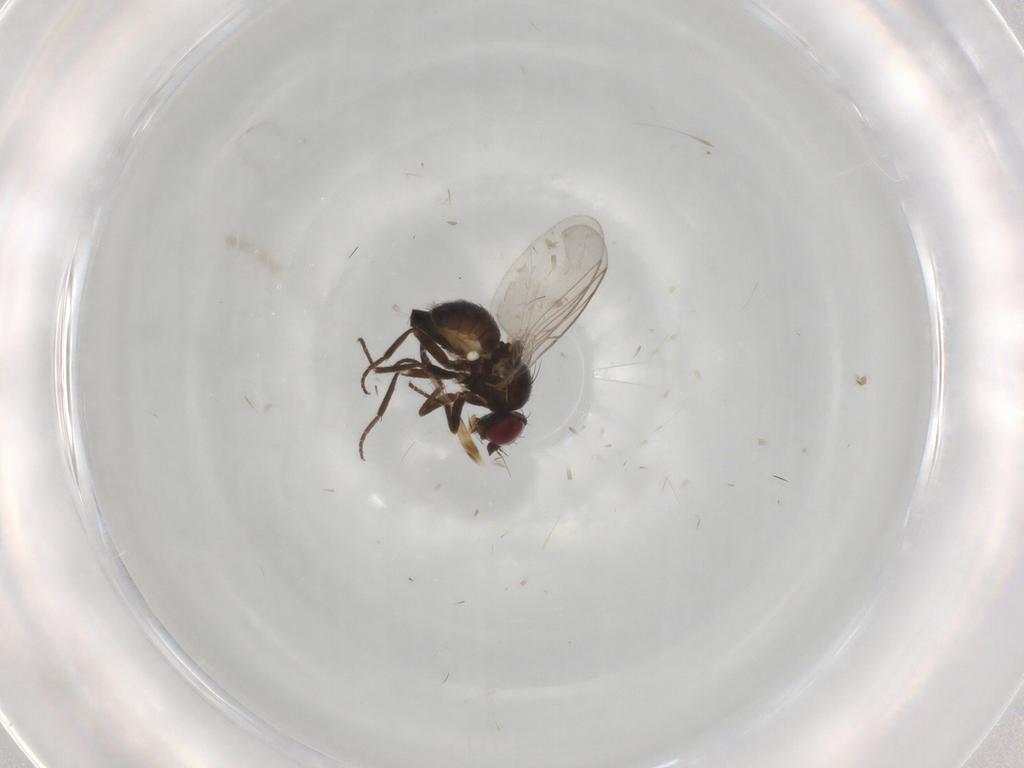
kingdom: Animalia
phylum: Arthropoda
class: Insecta
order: Diptera
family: Agromyzidae
